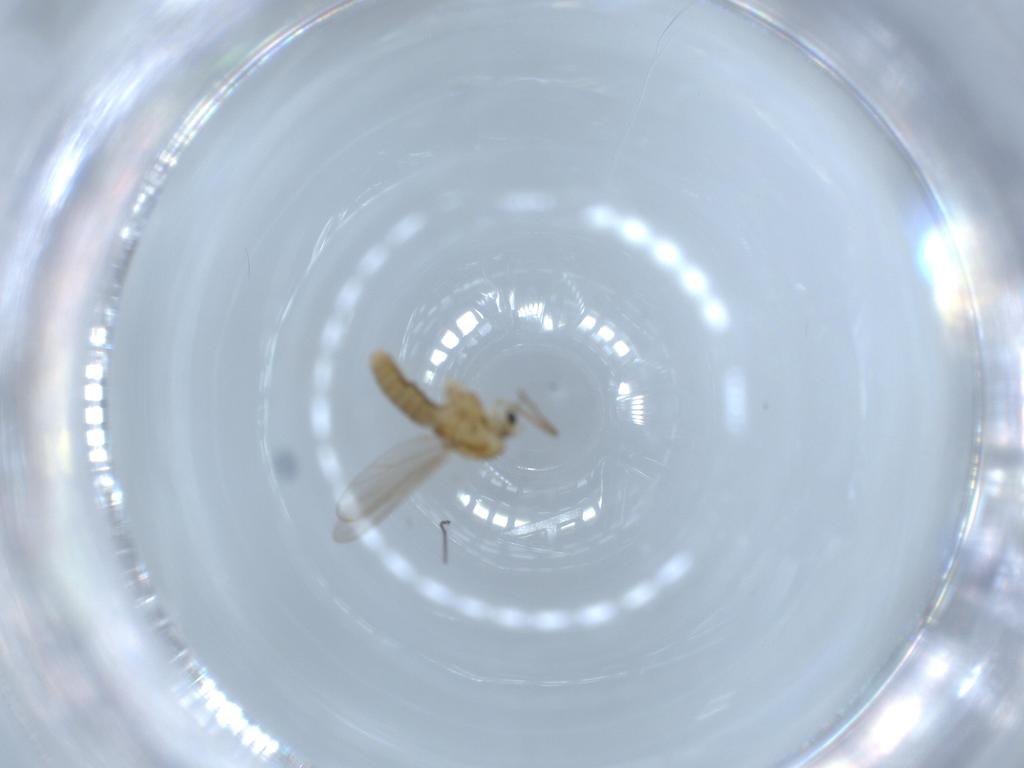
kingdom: Animalia
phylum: Arthropoda
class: Insecta
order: Diptera
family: Chironomidae
